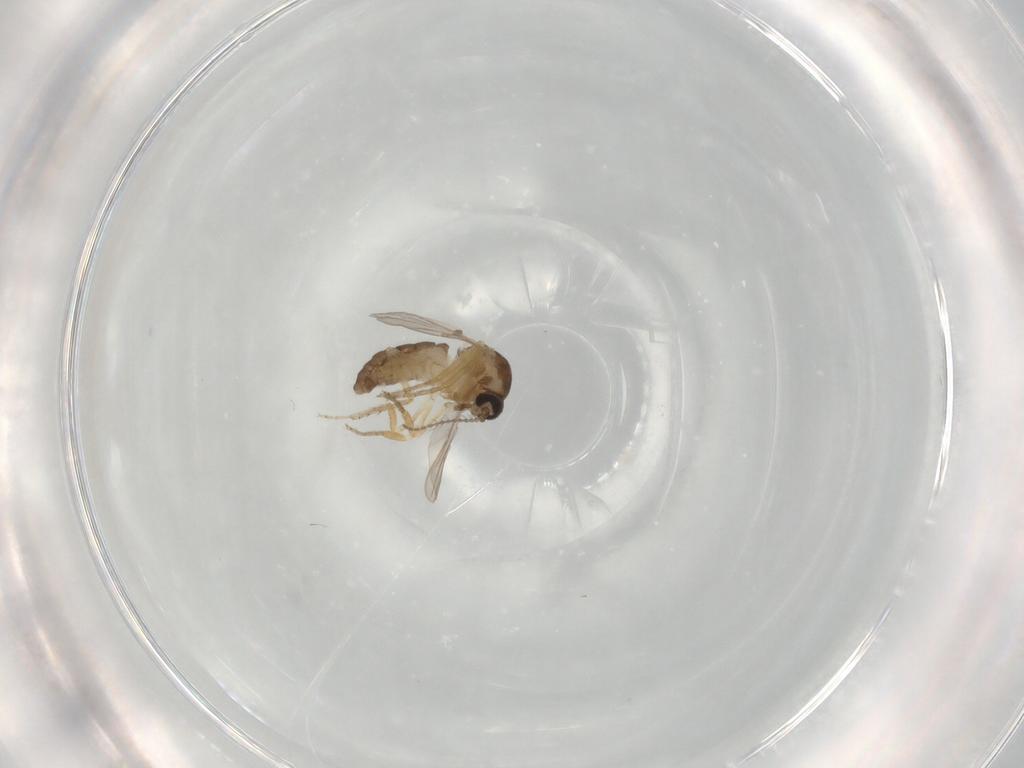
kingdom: Animalia
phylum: Arthropoda
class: Insecta
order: Diptera
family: Ceratopogonidae
